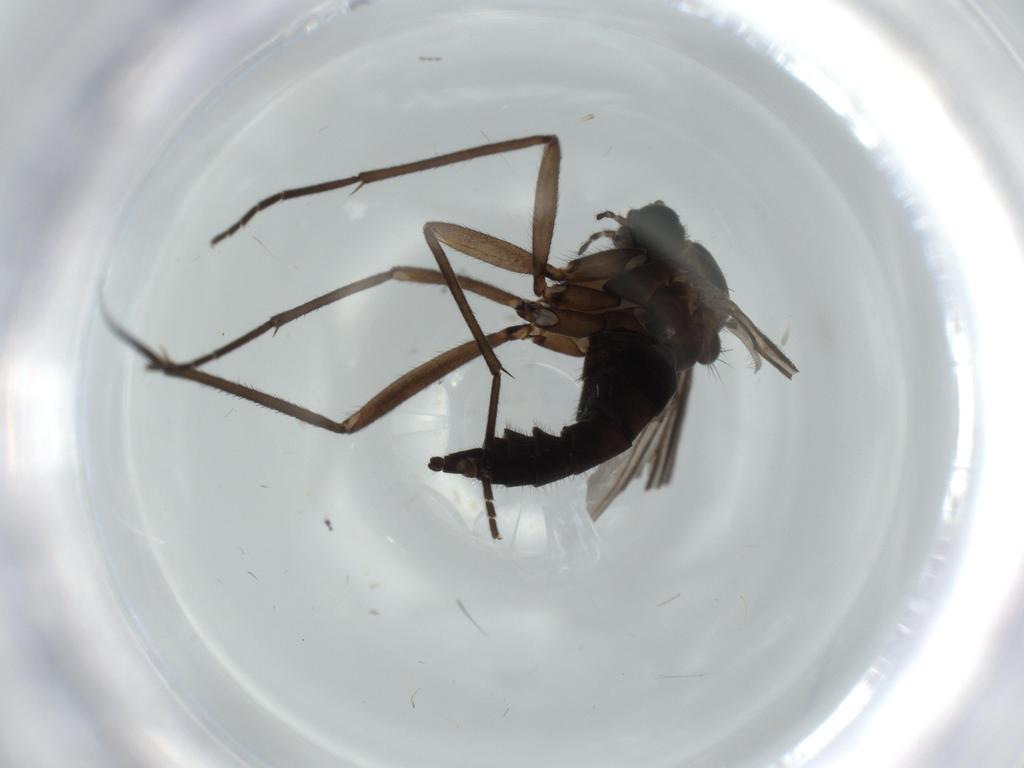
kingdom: Animalia
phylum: Arthropoda
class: Insecta
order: Diptera
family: Sciaridae
